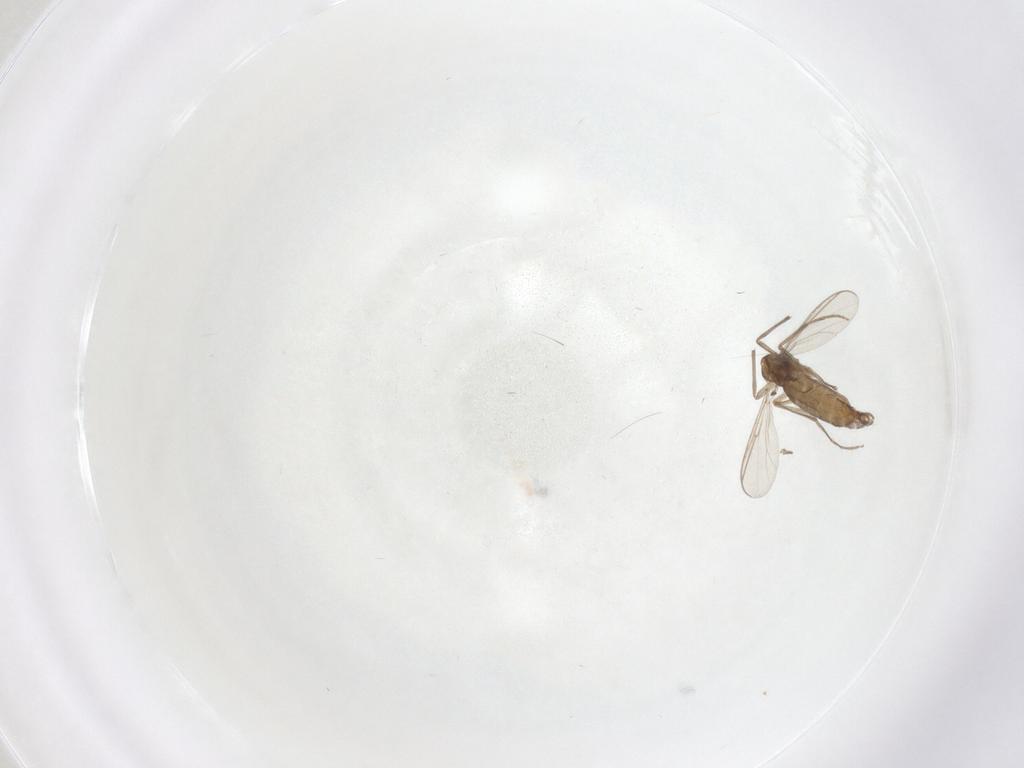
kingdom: Animalia
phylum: Arthropoda
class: Insecta
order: Diptera
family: Chironomidae
